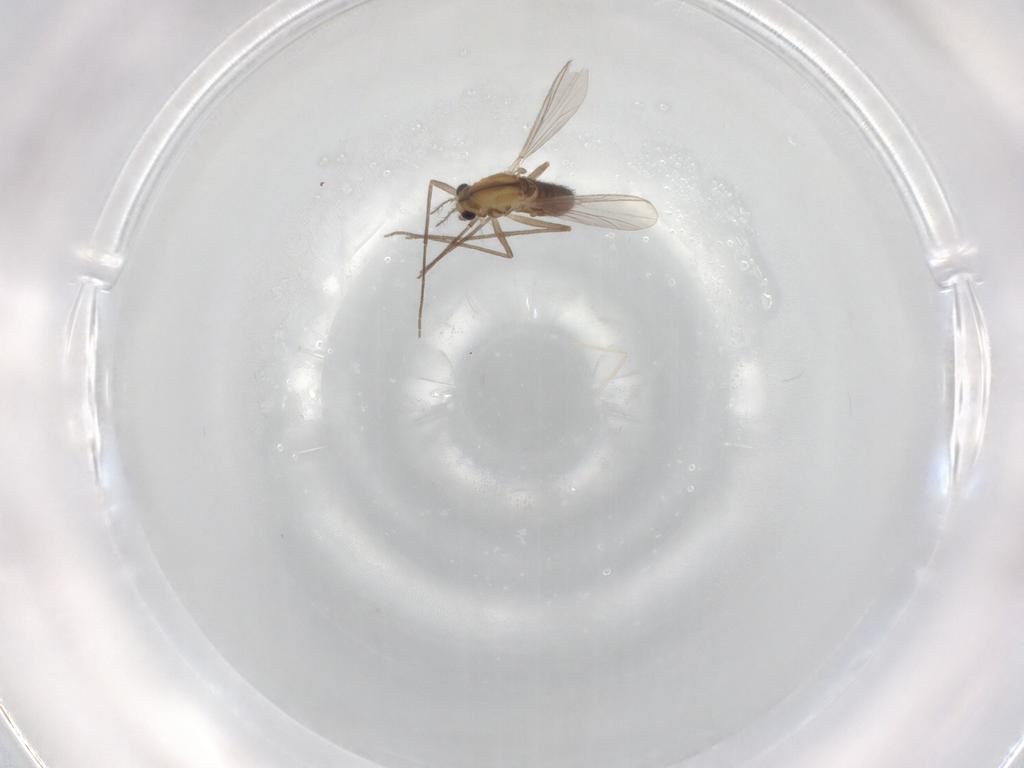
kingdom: Animalia
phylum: Arthropoda
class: Insecta
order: Diptera
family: Chironomidae
